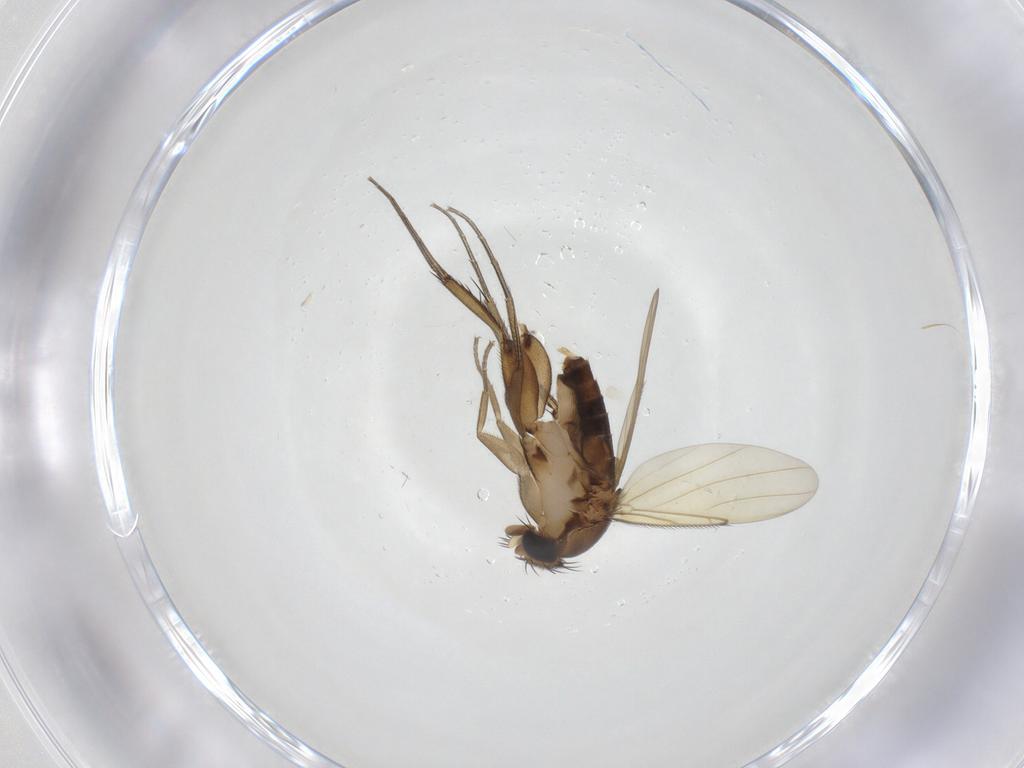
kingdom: Animalia
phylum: Arthropoda
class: Insecta
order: Diptera
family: Phoridae
